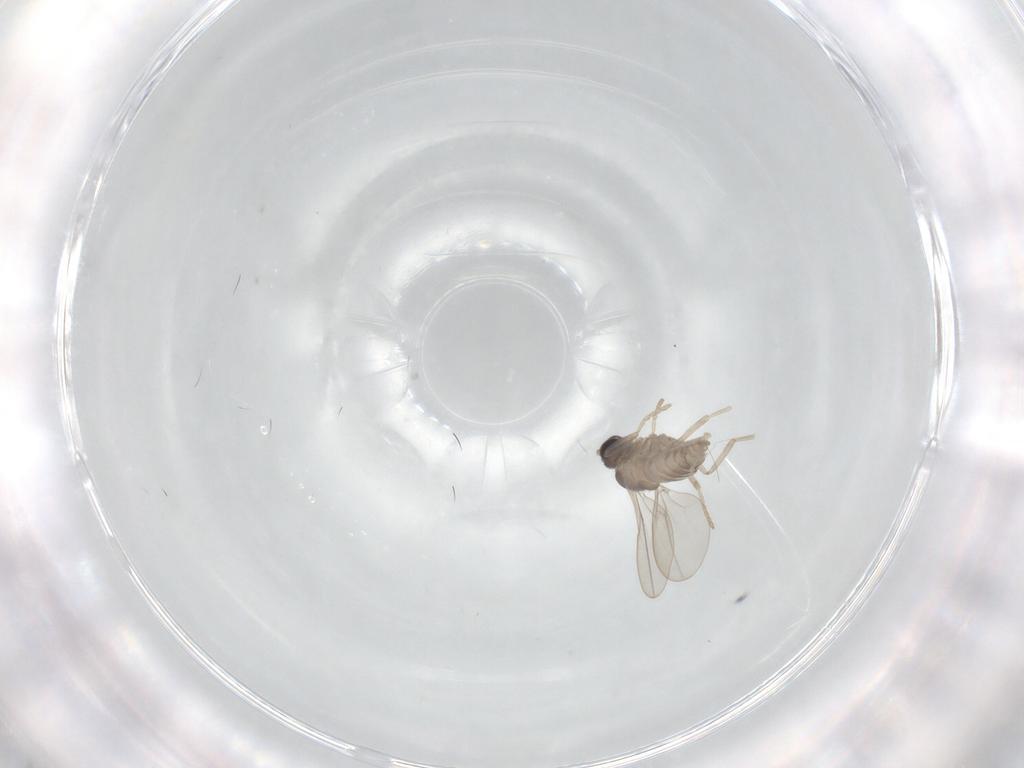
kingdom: Animalia
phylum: Arthropoda
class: Insecta
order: Diptera
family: Cecidomyiidae
